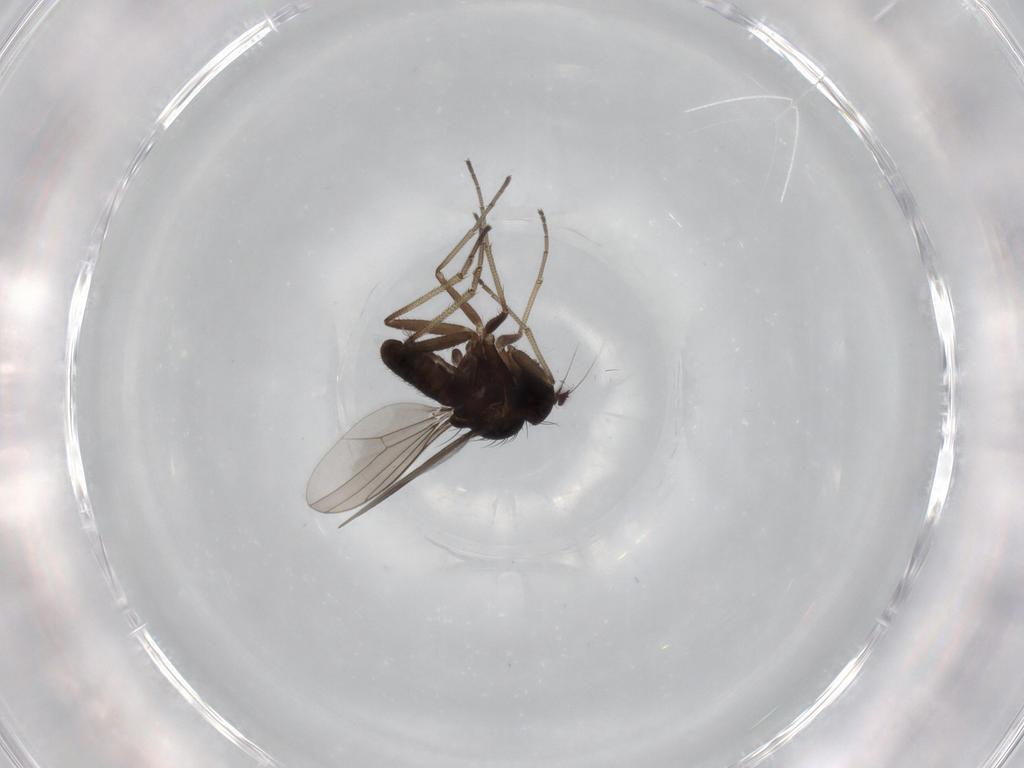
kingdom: Animalia
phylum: Arthropoda
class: Insecta
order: Diptera
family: Dolichopodidae
